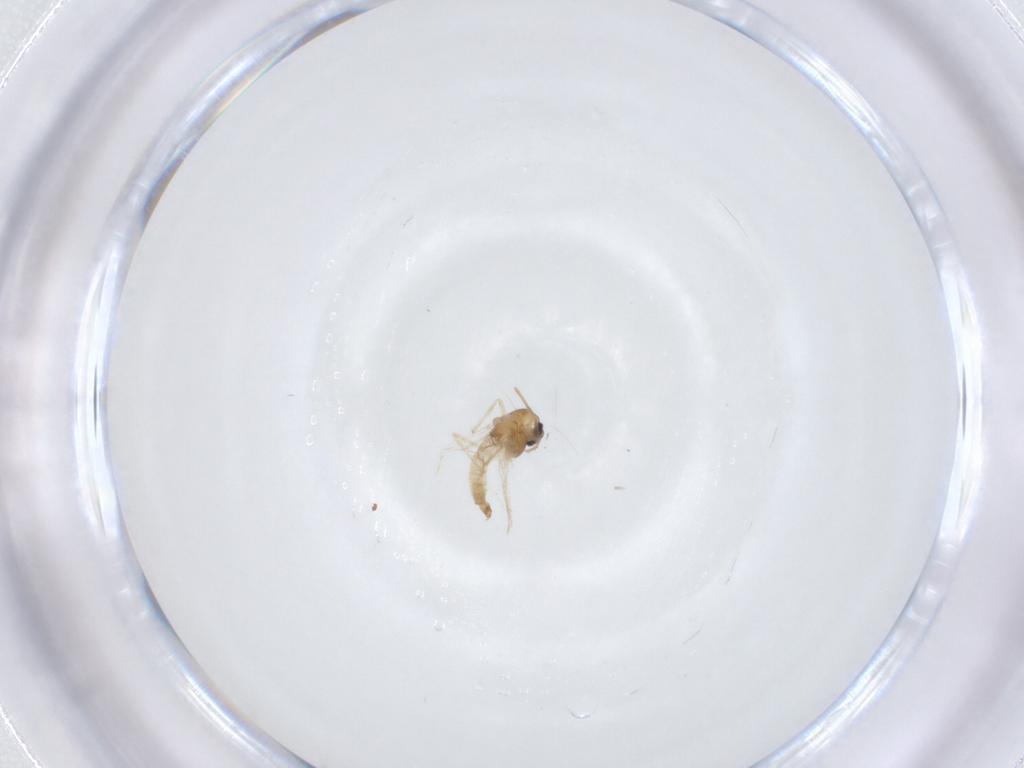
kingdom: Animalia
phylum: Arthropoda
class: Insecta
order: Diptera
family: Chironomidae
